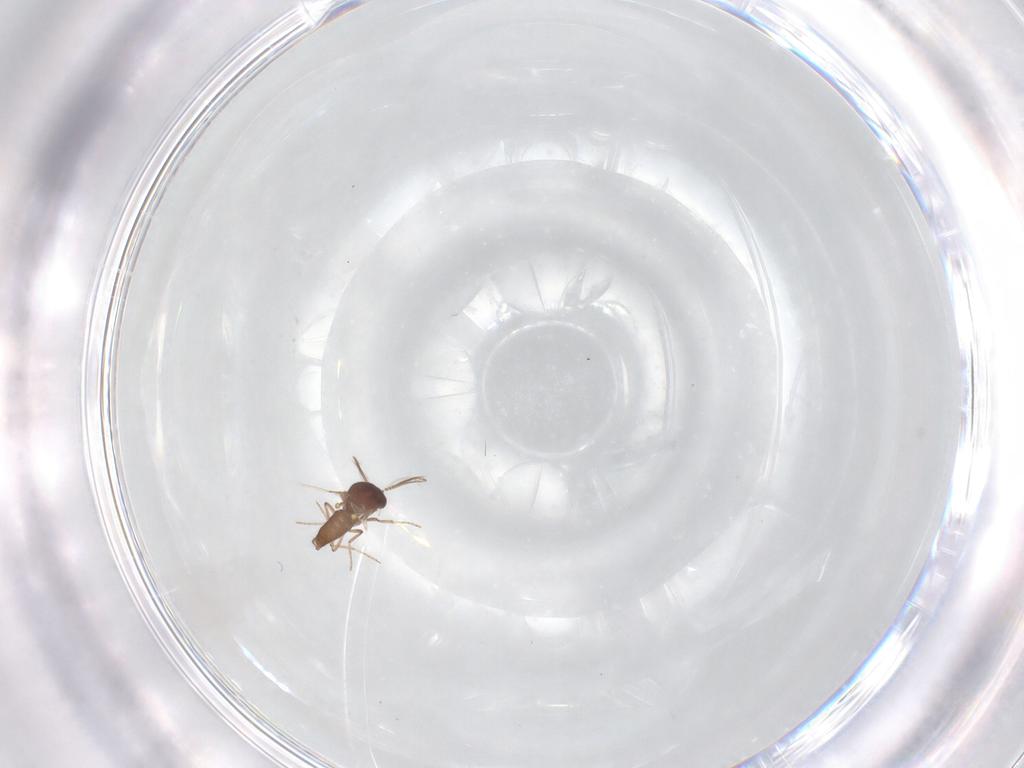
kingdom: Animalia
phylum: Arthropoda
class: Insecta
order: Diptera
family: Ceratopogonidae
